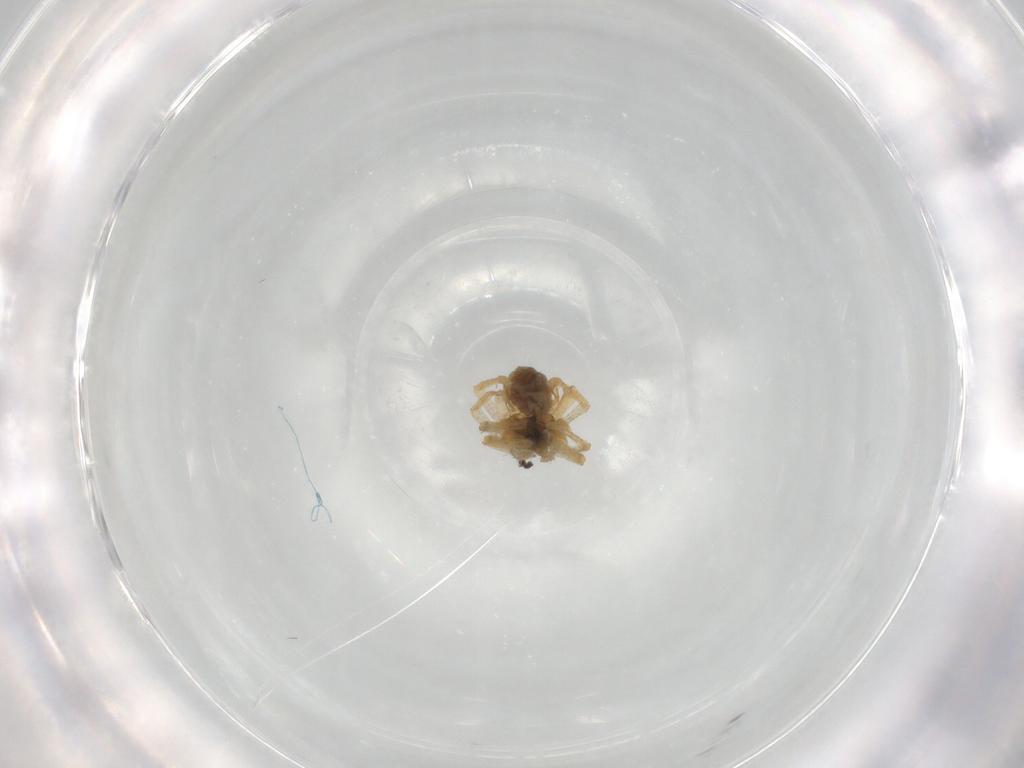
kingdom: Animalia
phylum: Arthropoda
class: Arachnida
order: Araneae
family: Linyphiidae
